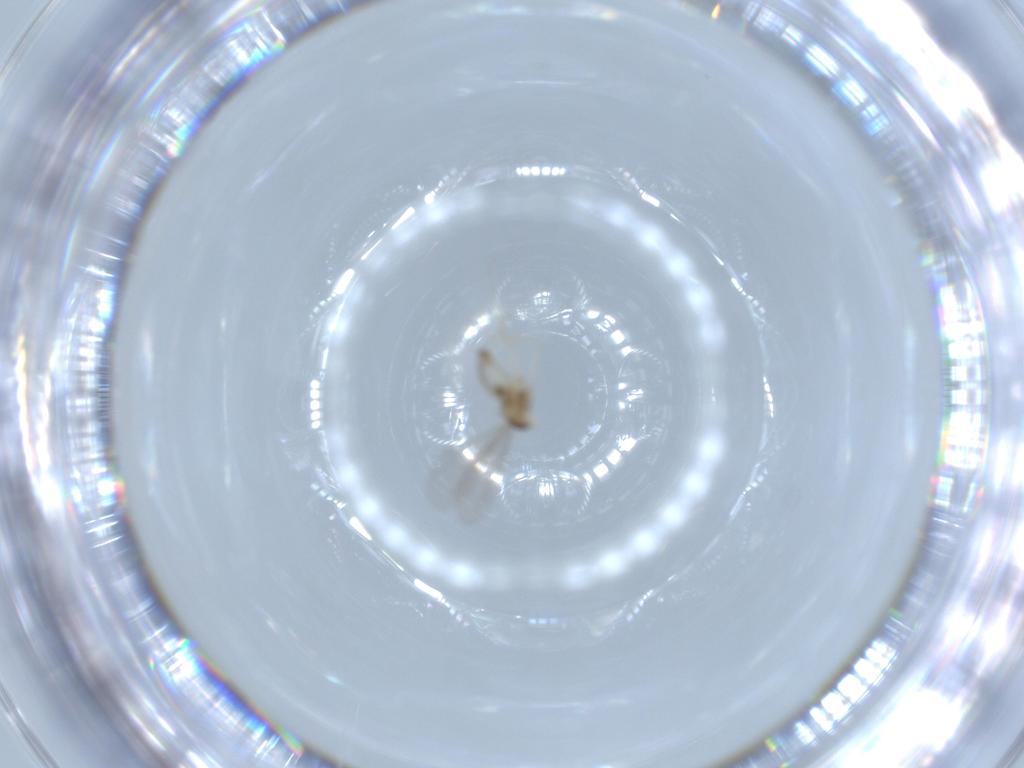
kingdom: Animalia
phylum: Arthropoda
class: Insecta
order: Diptera
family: Cecidomyiidae
